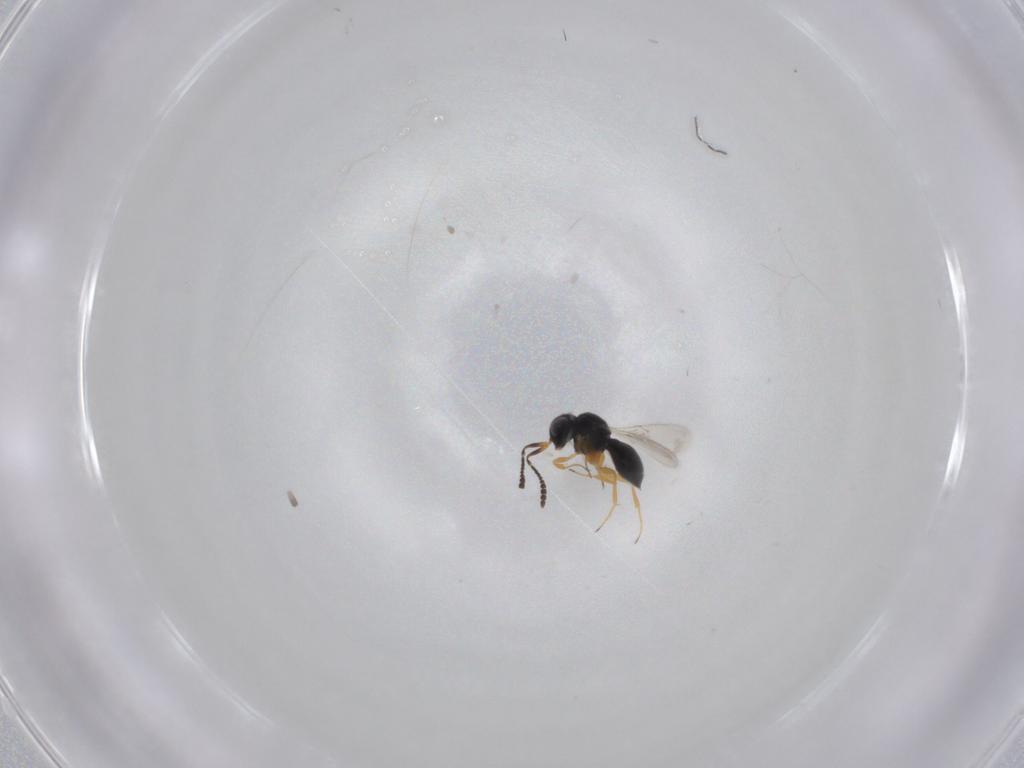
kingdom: Animalia
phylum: Arthropoda
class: Insecta
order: Hymenoptera
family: Scelionidae
